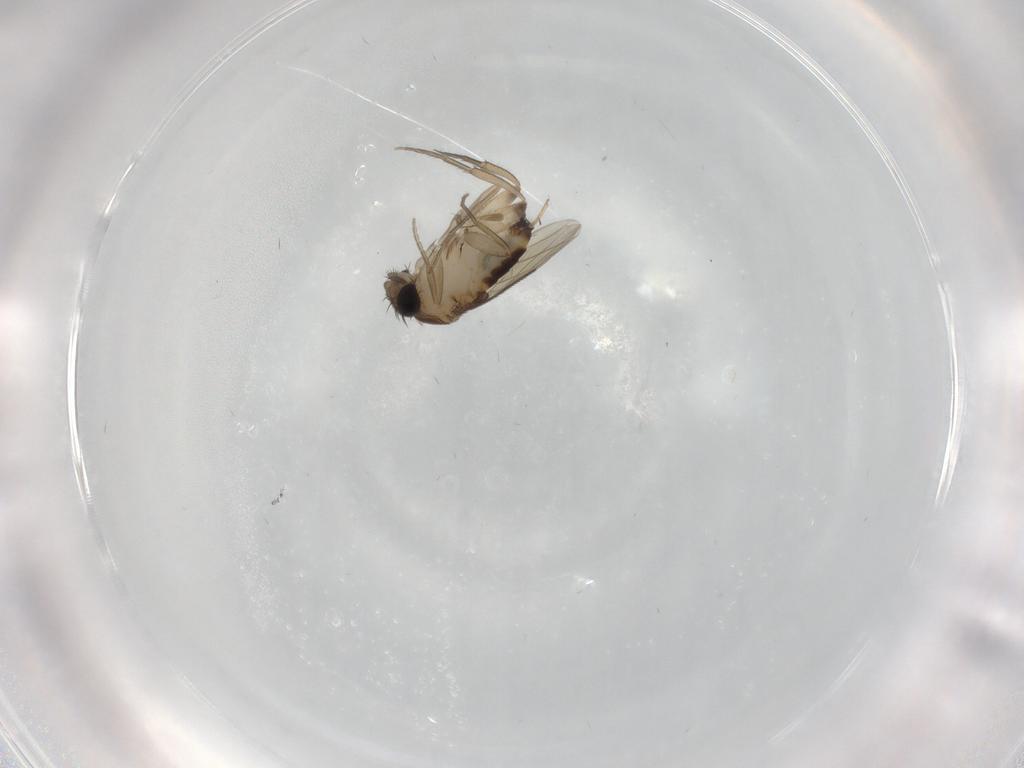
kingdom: Animalia
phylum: Arthropoda
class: Insecta
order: Diptera
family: Phoridae
